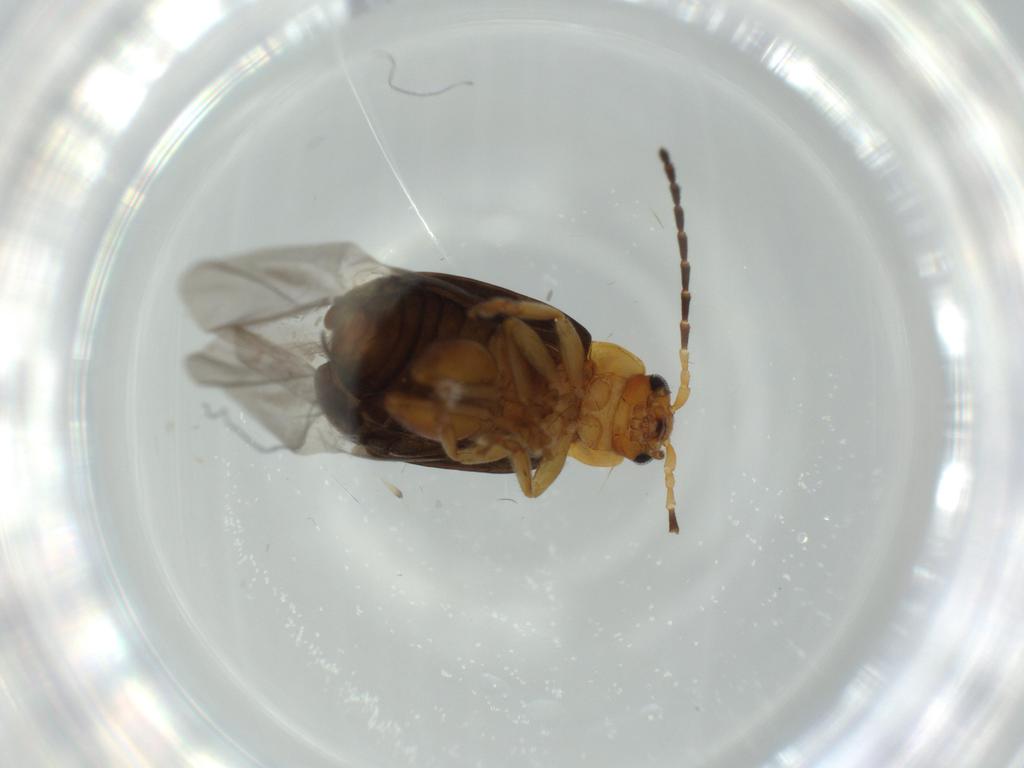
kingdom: Animalia
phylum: Arthropoda
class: Insecta
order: Coleoptera
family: Chrysomelidae
